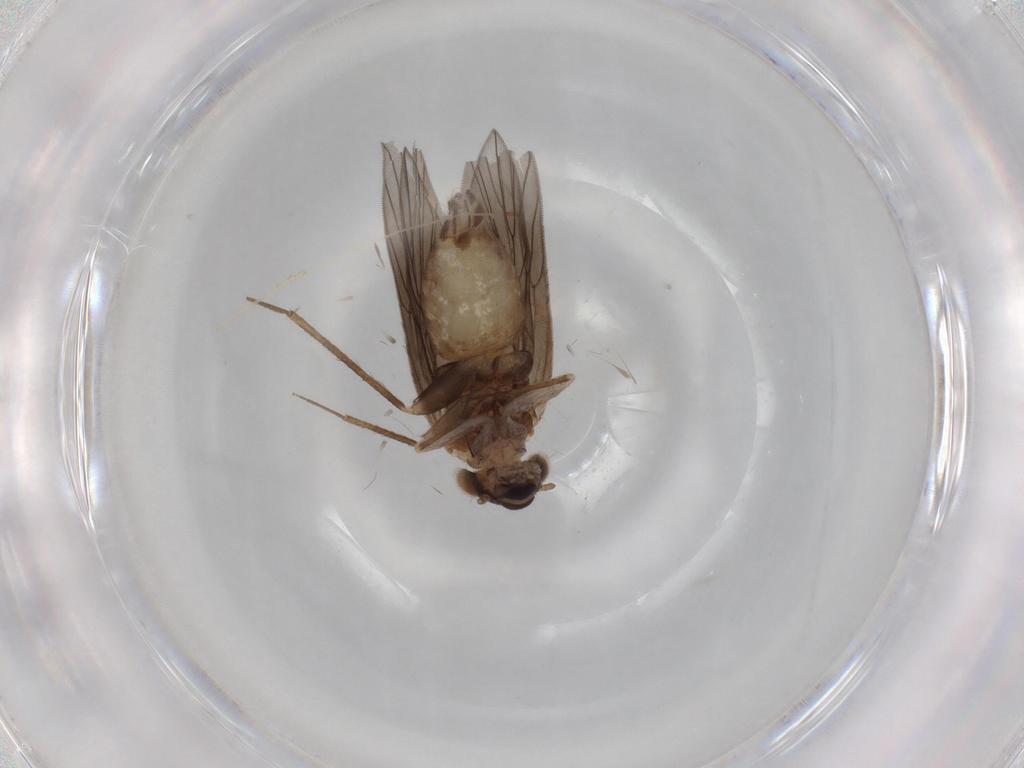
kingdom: Animalia
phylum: Arthropoda
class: Insecta
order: Psocodea
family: Lepidopsocidae
